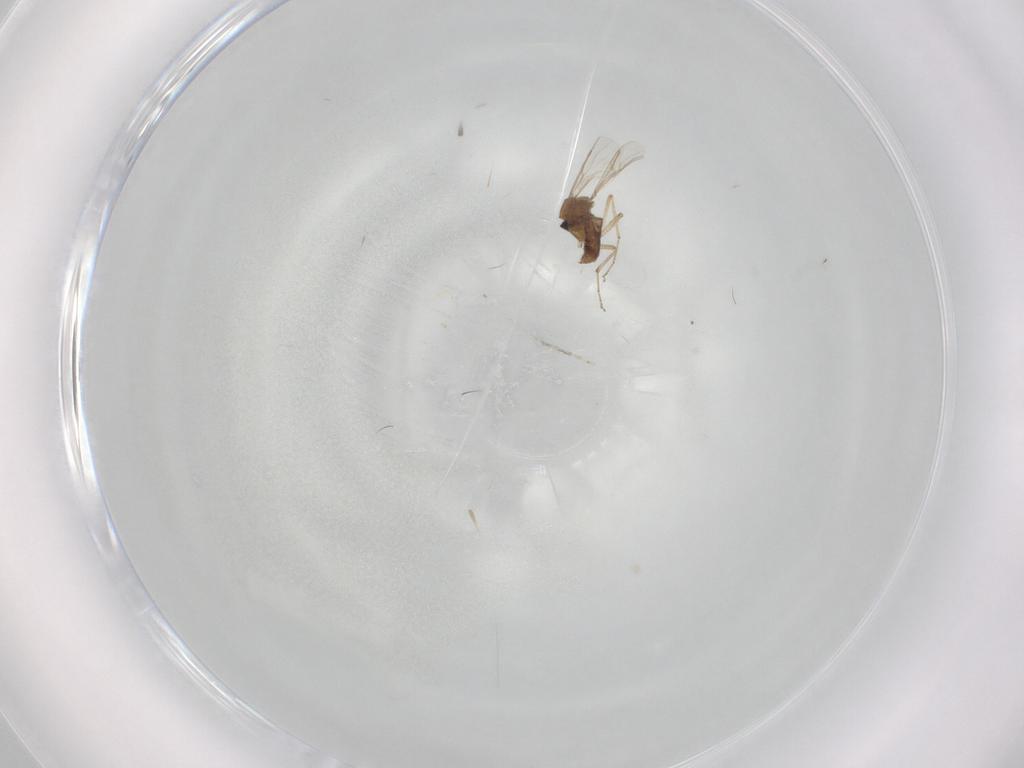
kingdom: Animalia
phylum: Arthropoda
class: Insecta
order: Diptera
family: Cecidomyiidae
